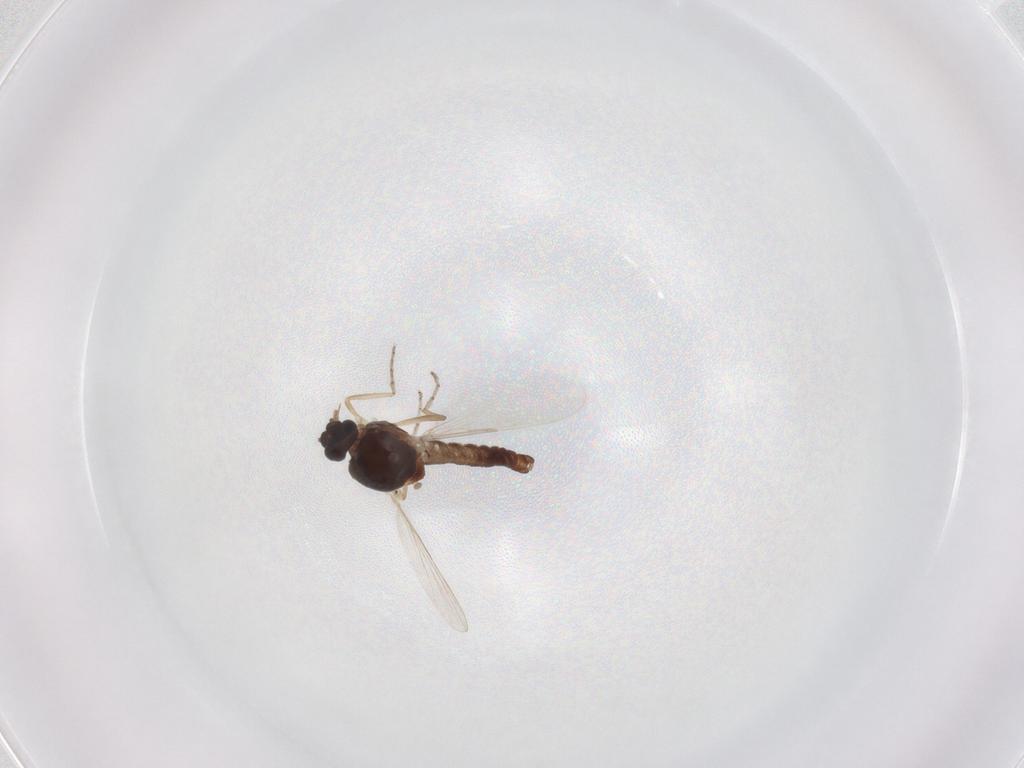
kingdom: Animalia
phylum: Arthropoda
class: Insecta
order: Diptera
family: Ceratopogonidae
